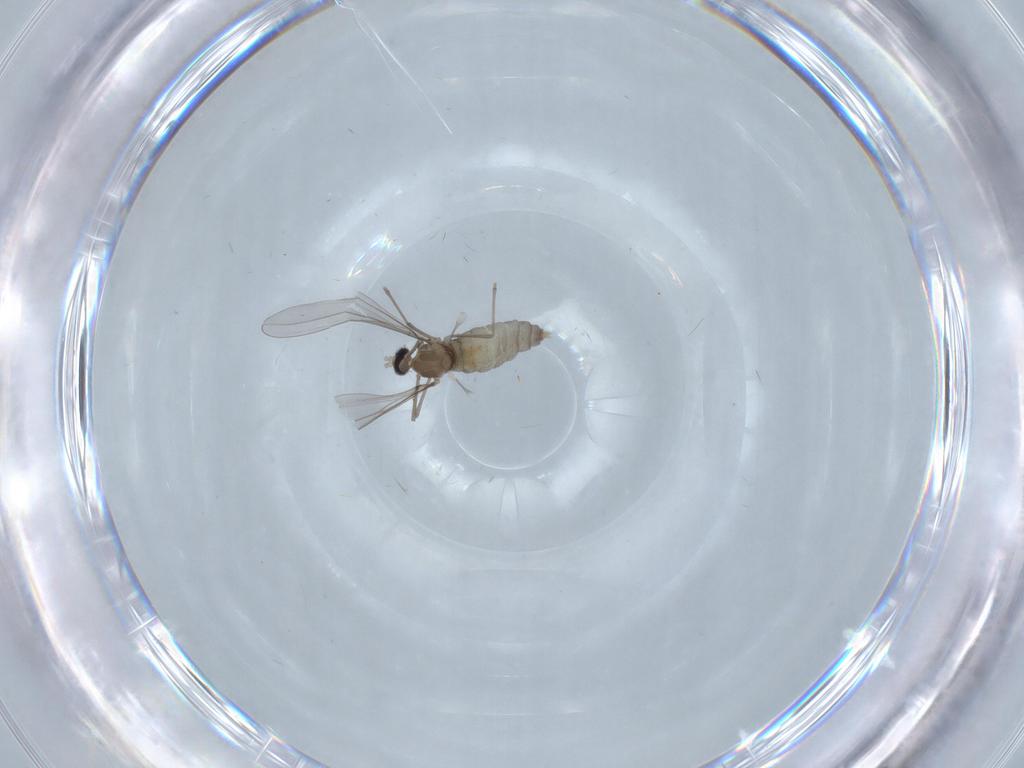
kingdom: Animalia
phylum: Arthropoda
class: Insecta
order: Diptera
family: Cecidomyiidae
